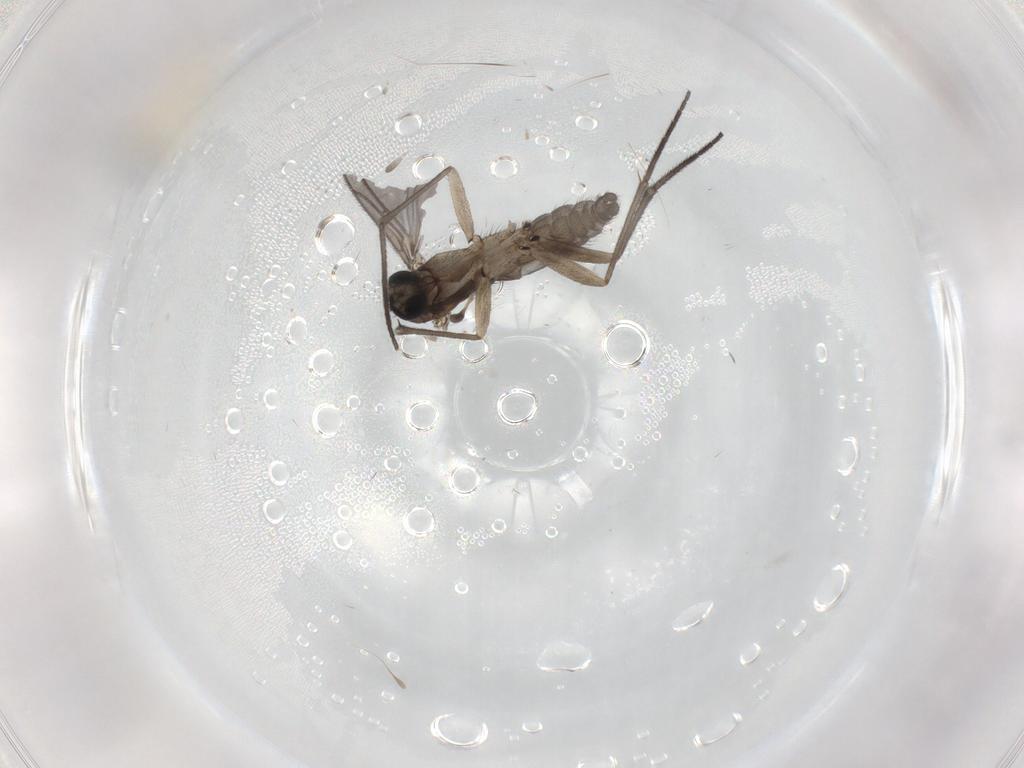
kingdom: Animalia
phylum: Arthropoda
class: Insecta
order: Diptera
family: Sciaridae
